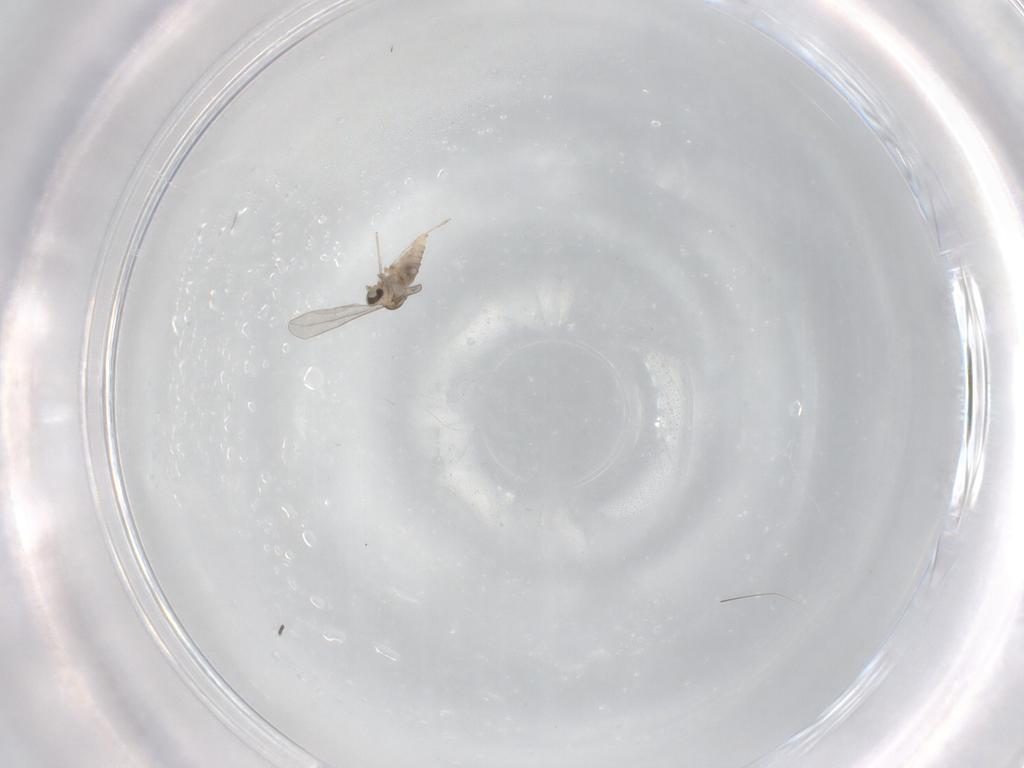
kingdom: Animalia
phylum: Arthropoda
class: Insecta
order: Diptera
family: Cecidomyiidae
